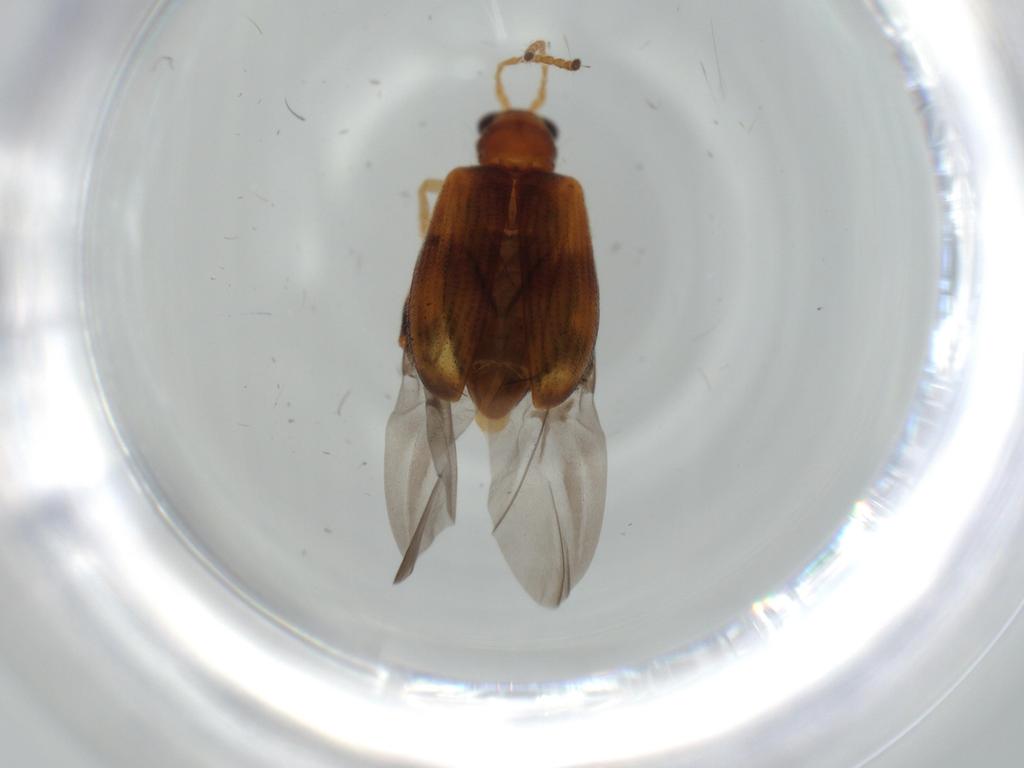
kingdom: Animalia
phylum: Arthropoda
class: Insecta
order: Coleoptera
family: Chrysomelidae
